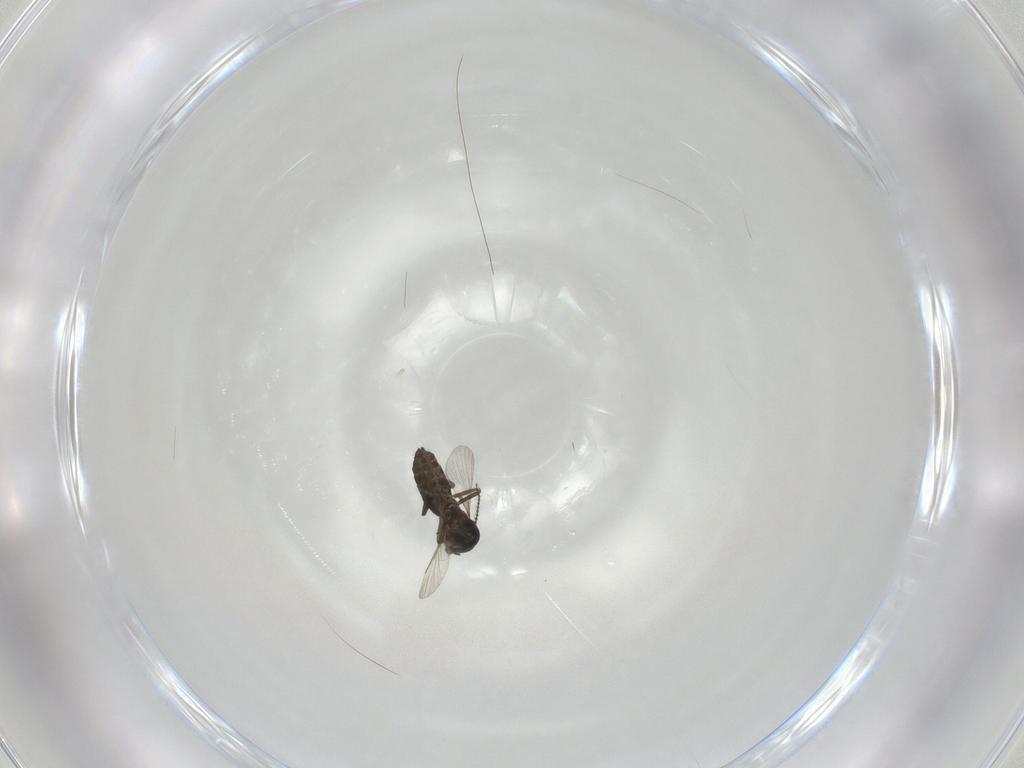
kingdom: Animalia
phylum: Arthropoda
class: Insecta
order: Diptera
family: Ceratopogonidae
